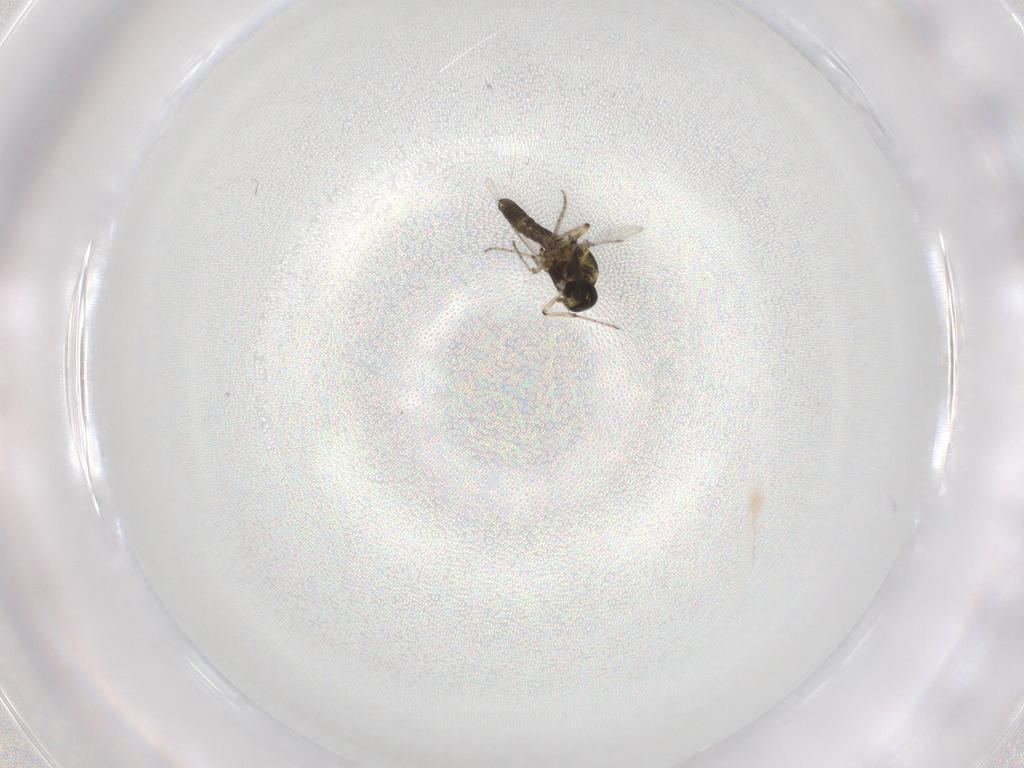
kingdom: Animalia
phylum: Arthropoda
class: Insecta
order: Diptera
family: Ceratopogonidae
